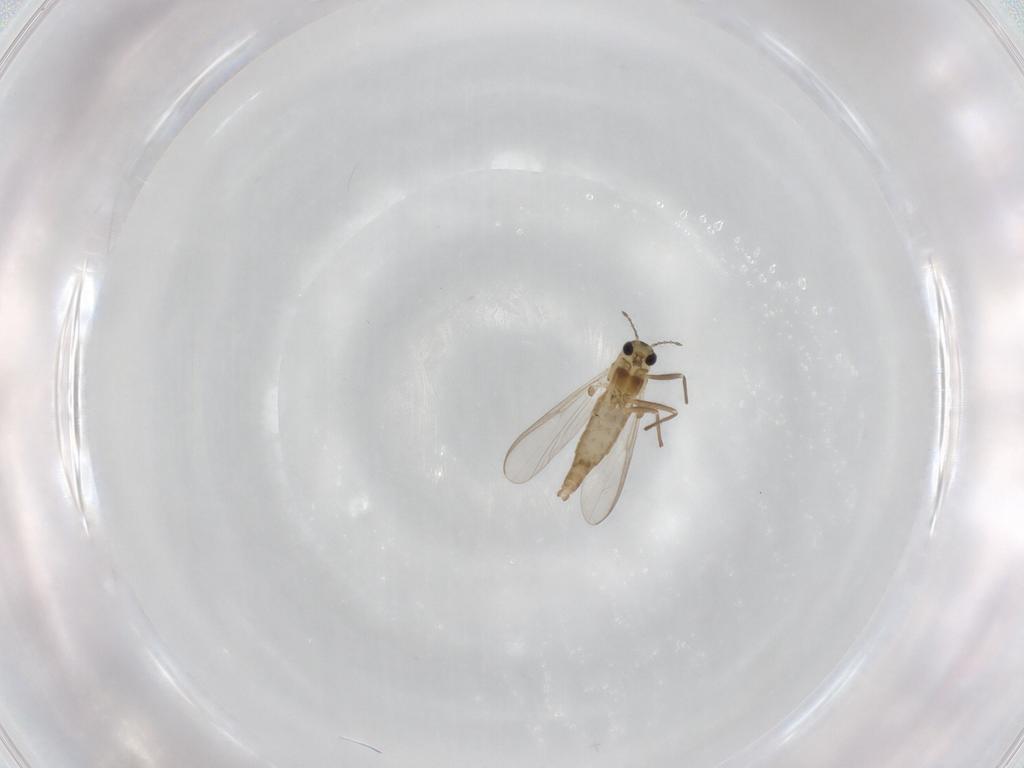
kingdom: Animalia
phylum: Arthropoda
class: Insecta
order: Diptera
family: Chironomidae
